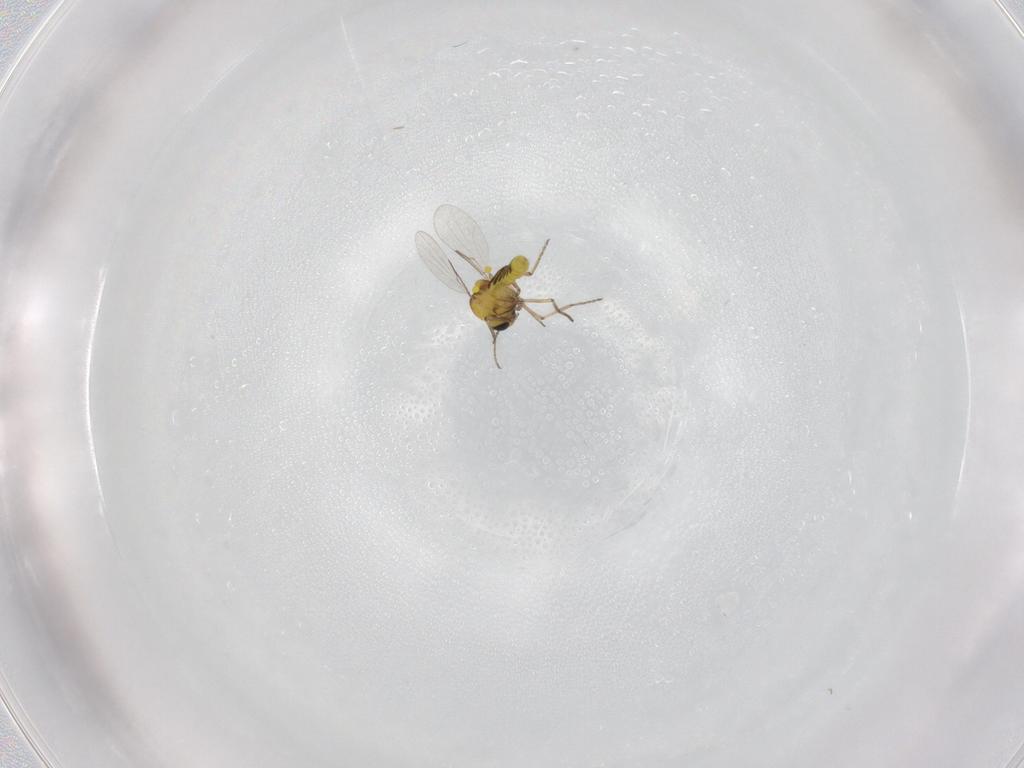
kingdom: Animalia
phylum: Arthropoda
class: Insecta
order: Diptera
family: Chironomidae
